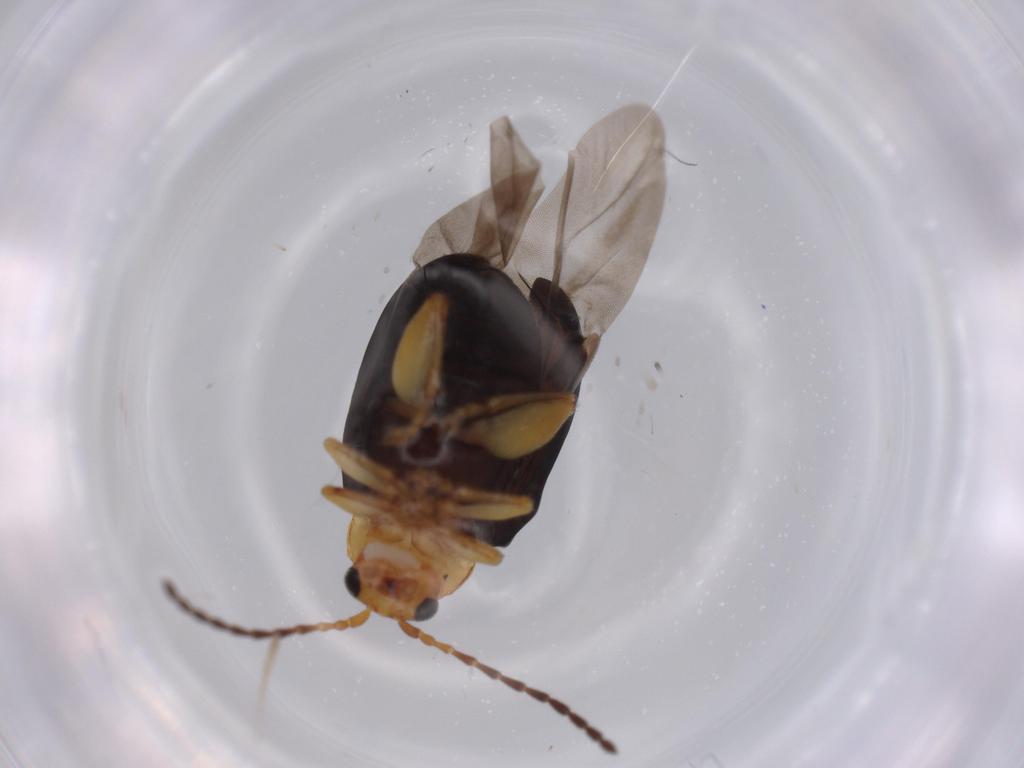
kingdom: Animalia
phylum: Arthropoda
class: Insecta
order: Coleoptera
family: Chrysomelidae
